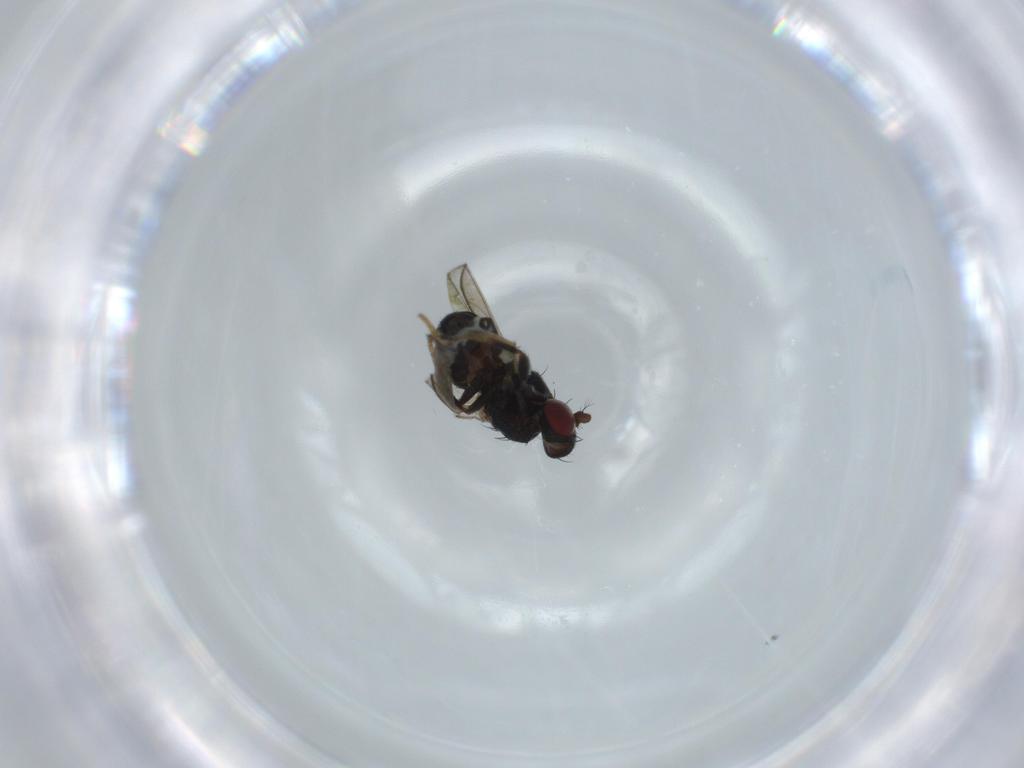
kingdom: Animalia
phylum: Arthropoda
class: Insecta
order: Diptera
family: Chironomidae
